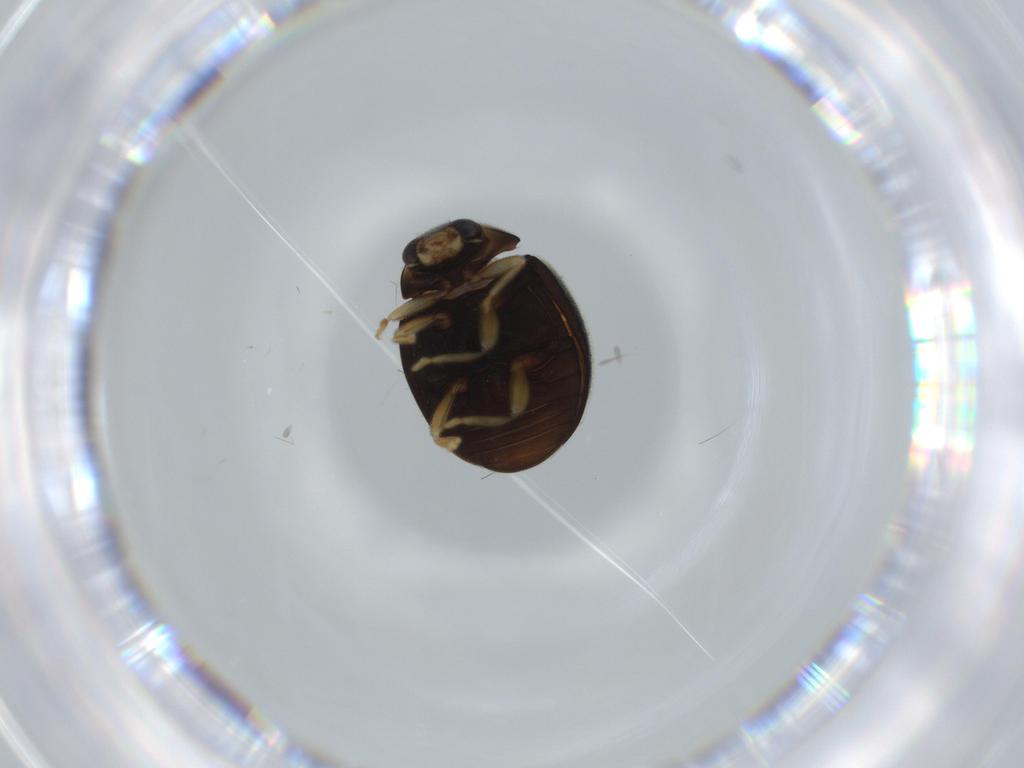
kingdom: Animalia
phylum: Arthropoda
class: Insecta
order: Coleoptera
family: Coccinellidae
